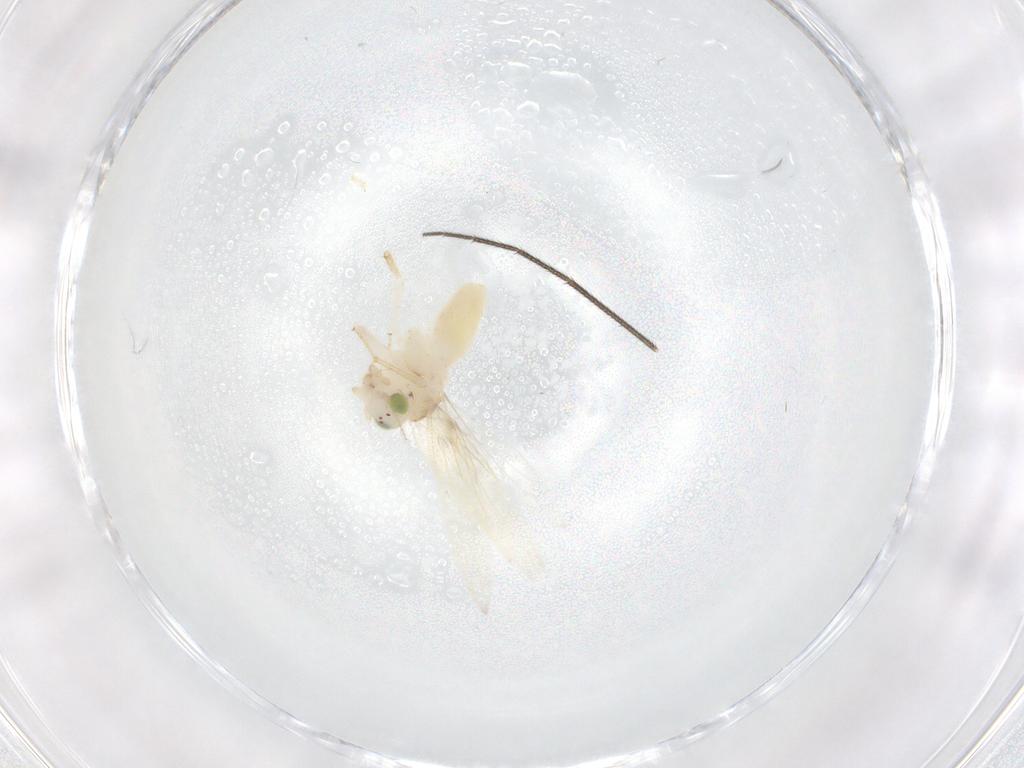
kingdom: Animalia
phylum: Arthropoda
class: Insecta
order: Psocodea
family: Lepidopsocidae
